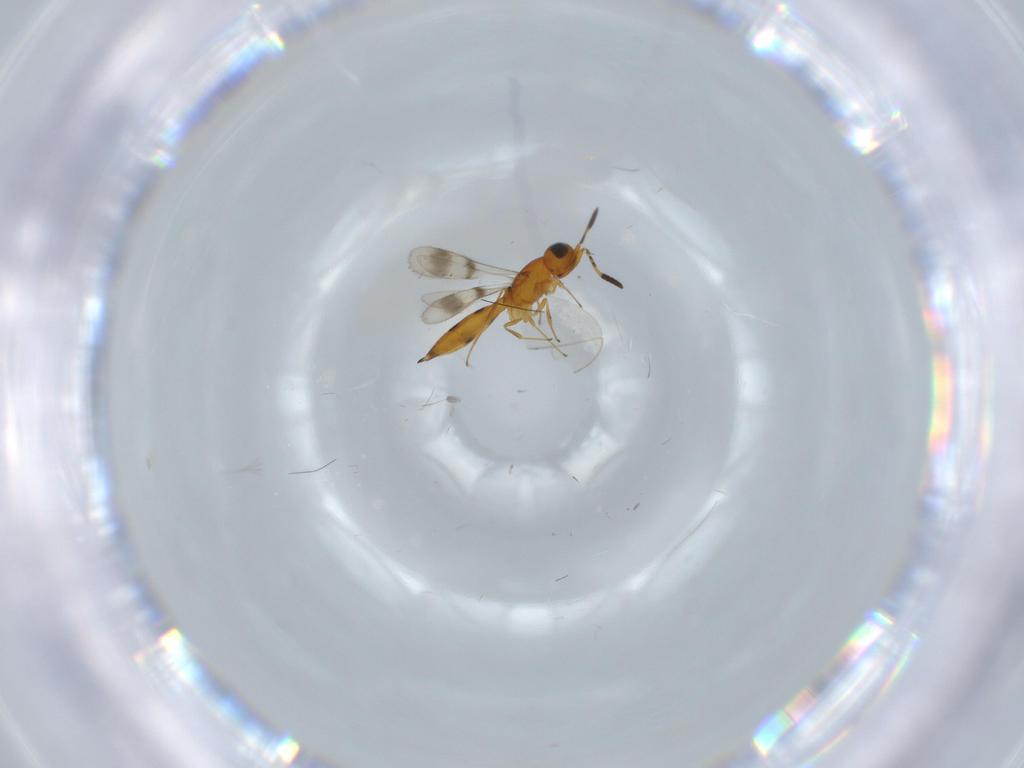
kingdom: Animalia
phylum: Arthropoda
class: Insecta
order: Hymenoptera
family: Scelionidae
